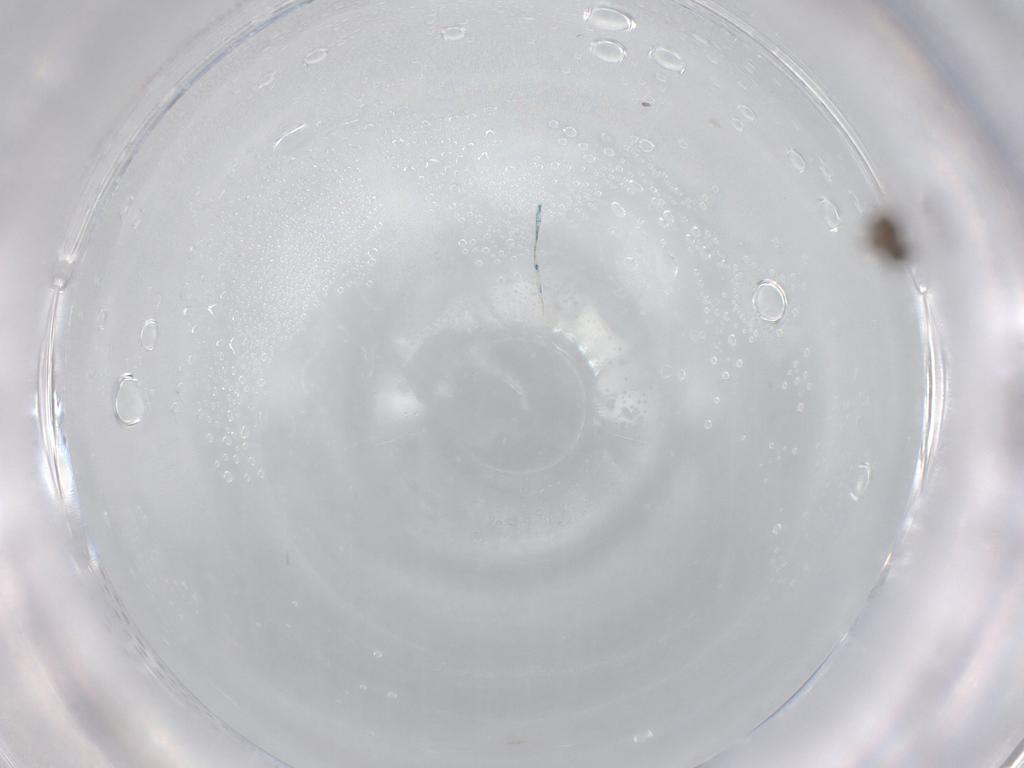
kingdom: Animalia
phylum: Arthropoda
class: Insecta
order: Diptera
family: Cecidomyiidae
